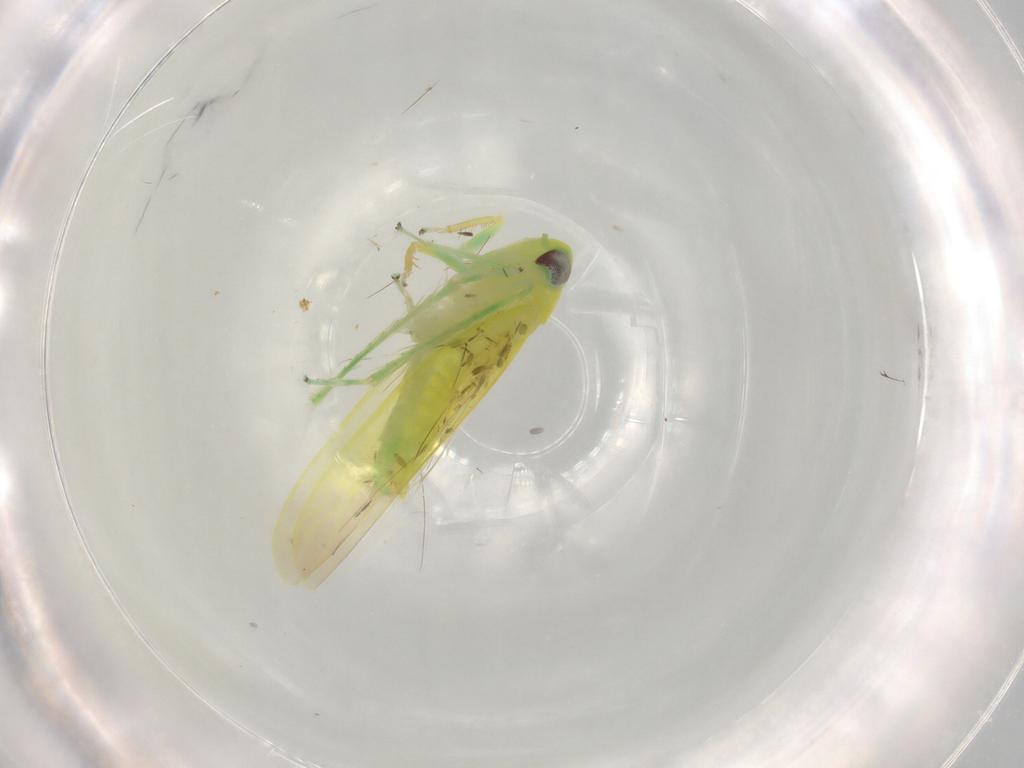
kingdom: Animalia
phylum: Arthropoda
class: Insecta
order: Hemiptera
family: Cicadellidae
